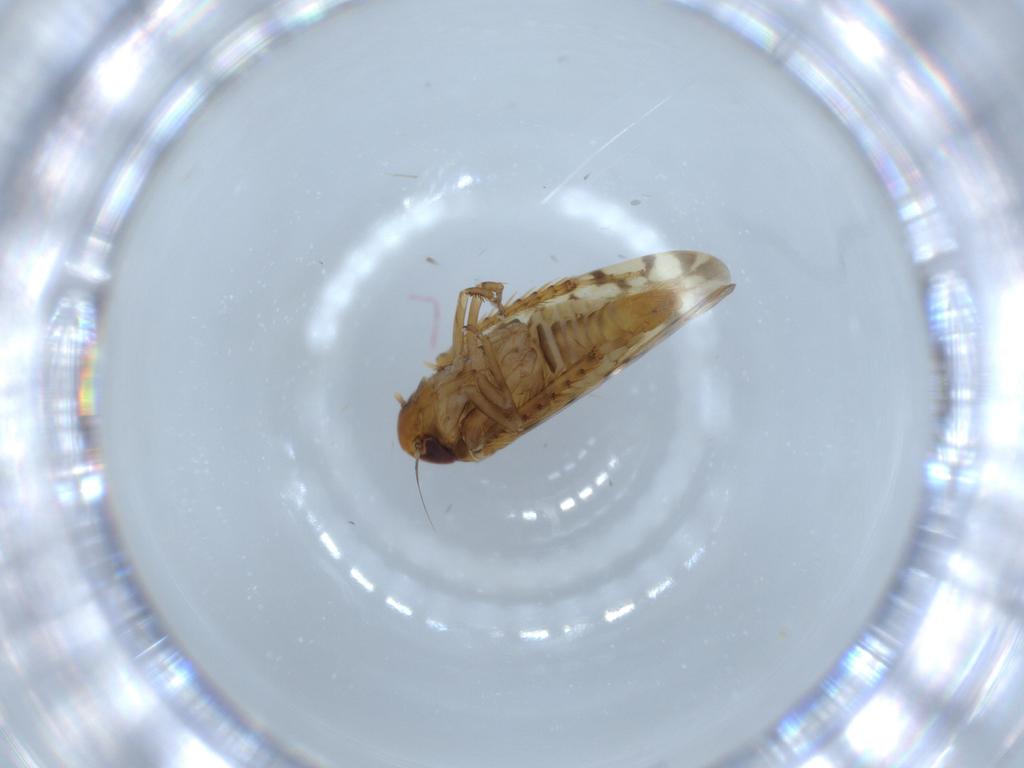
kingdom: Animalia
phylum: Arthropoda
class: Insecta
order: Hemiptera
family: Cicadellidae
